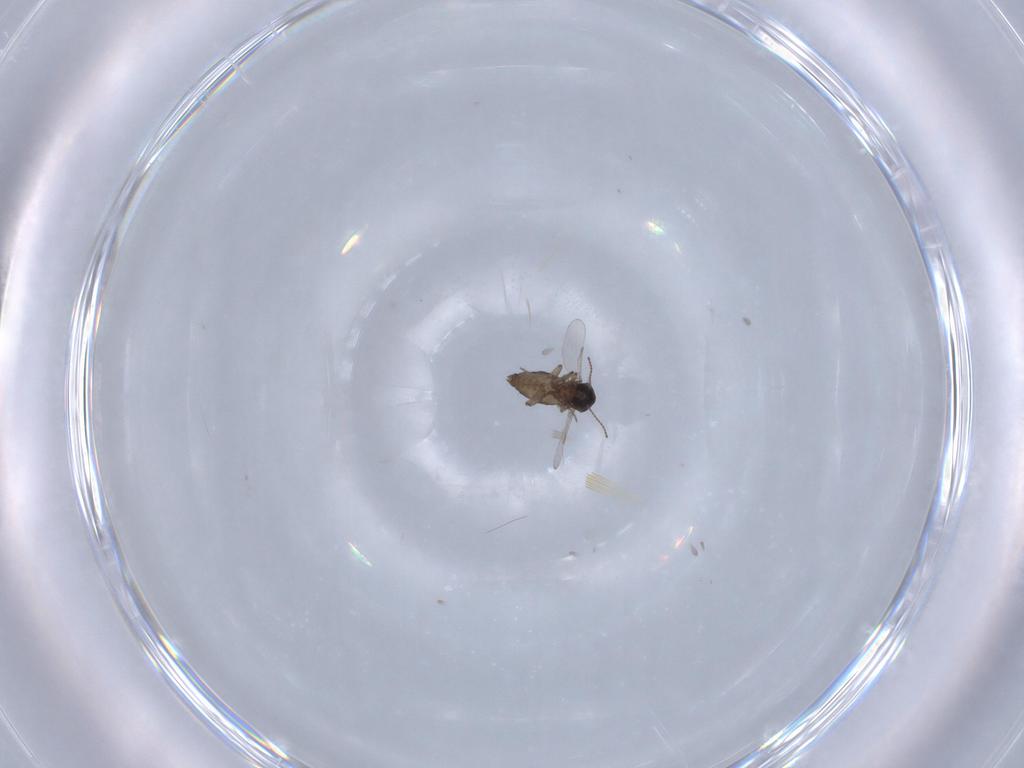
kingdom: Animalia
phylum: Arthropoda
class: Insecta
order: Diptera
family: Ceratopogonidae
